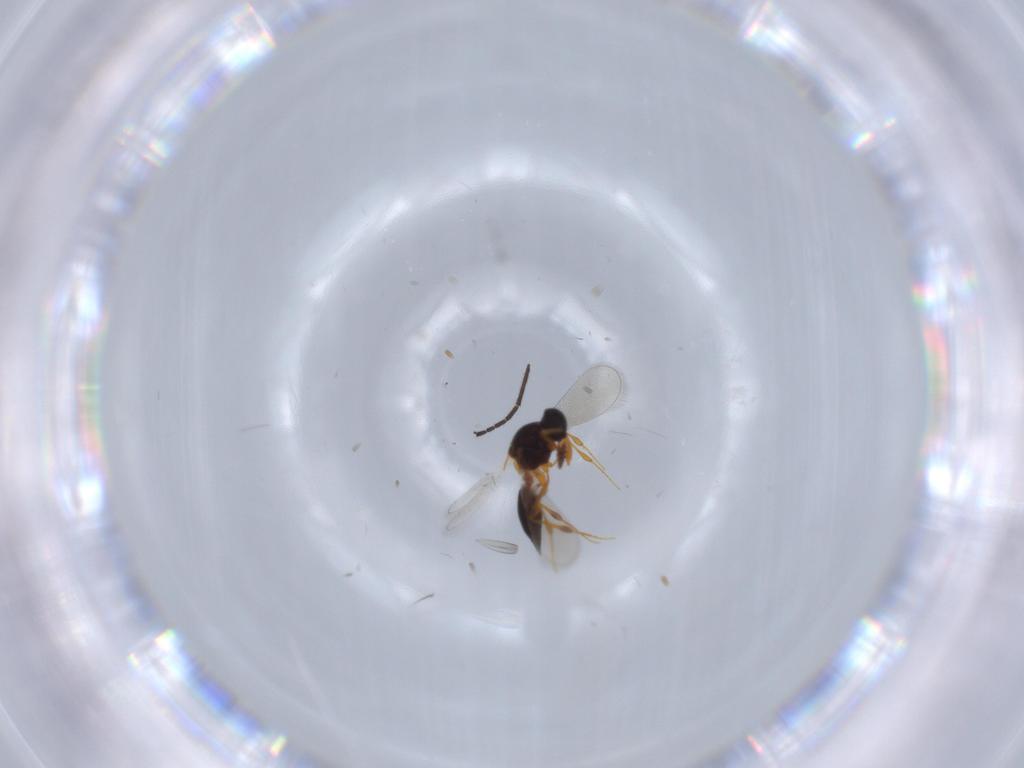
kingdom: Animalia
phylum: Arthropoda
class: Insecta
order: Hymenoptera
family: Platygastridae
